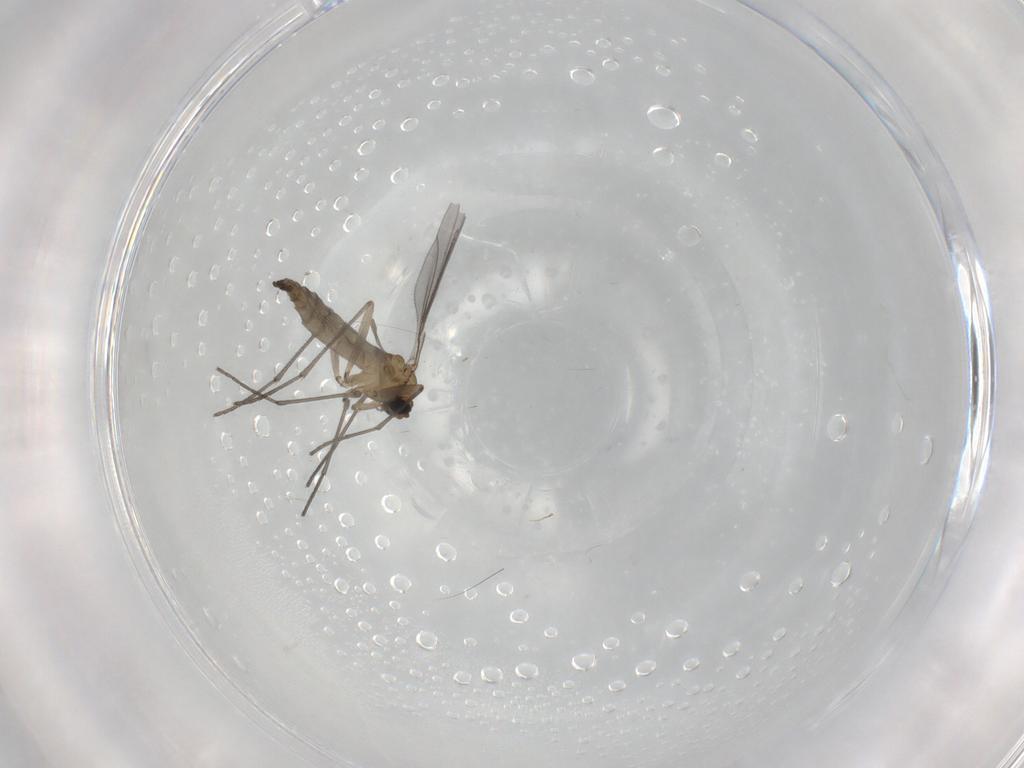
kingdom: Animalia
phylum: Arthropoda
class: Insecta
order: Diptera
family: Sciaridae
